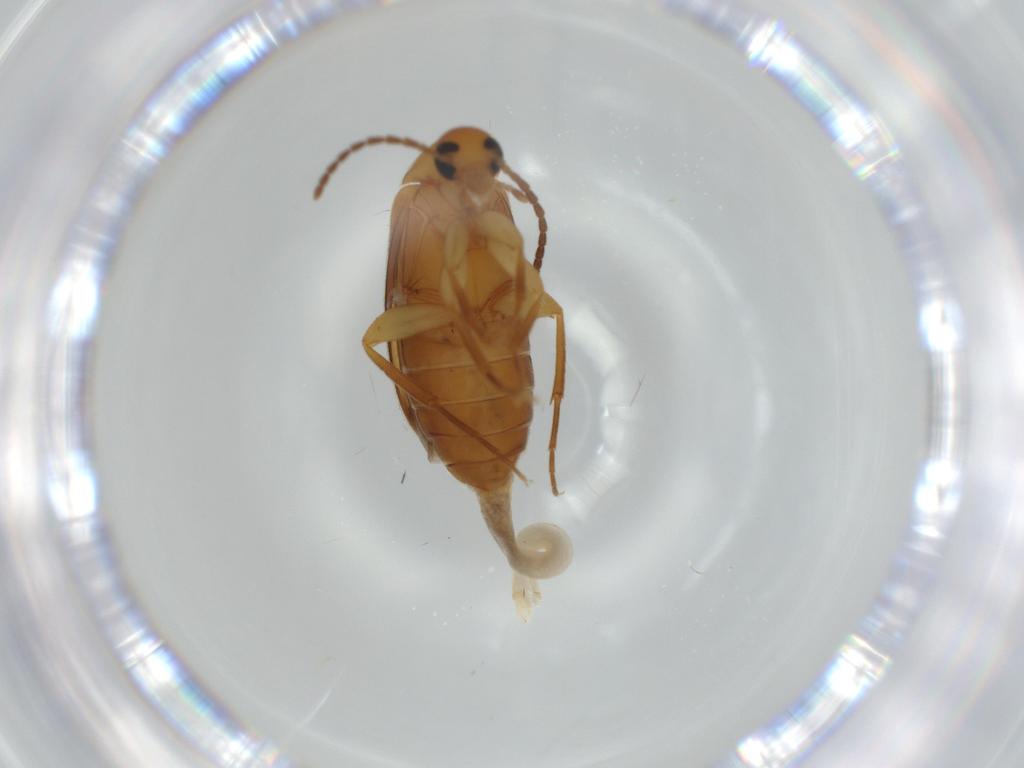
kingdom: Animalia
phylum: Arthropoda
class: Insecta
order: Coleoptera
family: Scraptiidae
